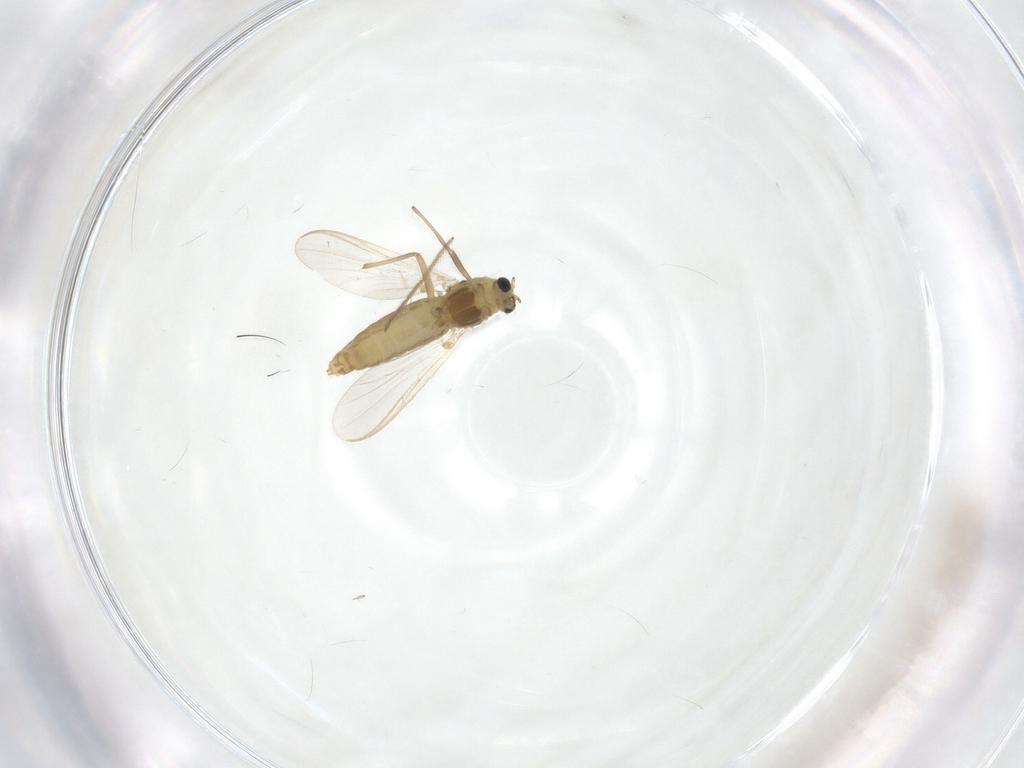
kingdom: Animalia
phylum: Arthropoda
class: Insecta
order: Diptera
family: Chironomidae
